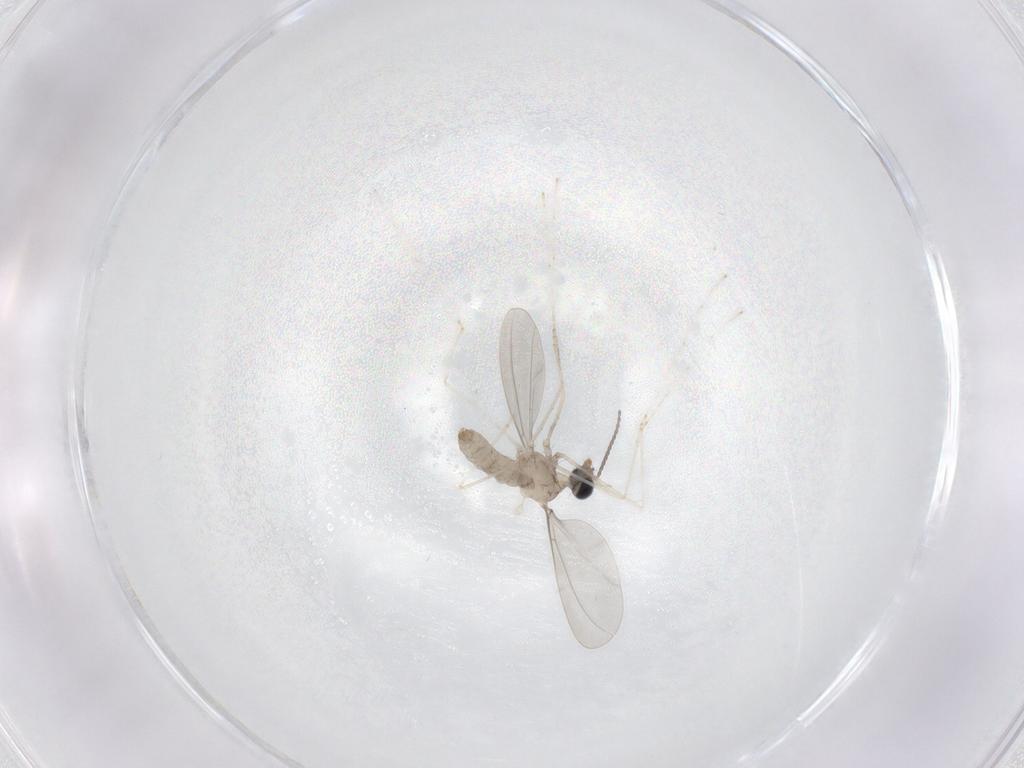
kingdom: Animalia
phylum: Arthropoda
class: Insecta
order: Diptera
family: Cecidomyiidae
